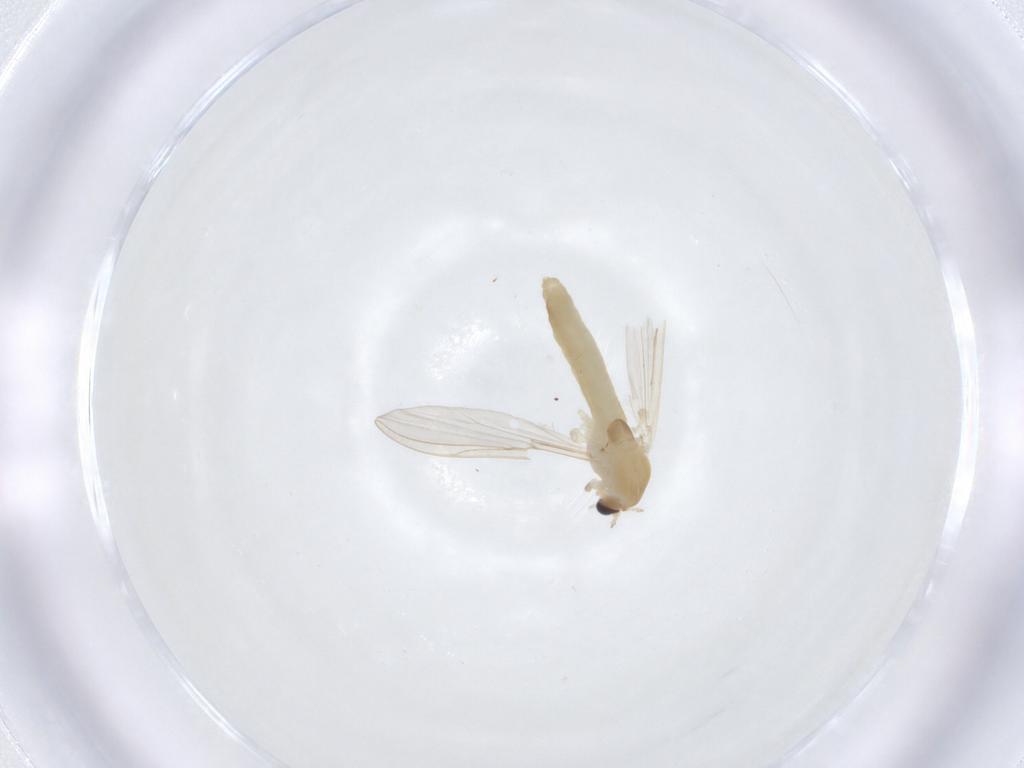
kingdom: Animalia
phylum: Arthropoda
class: Insecta
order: Diptera
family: Chironomidae
